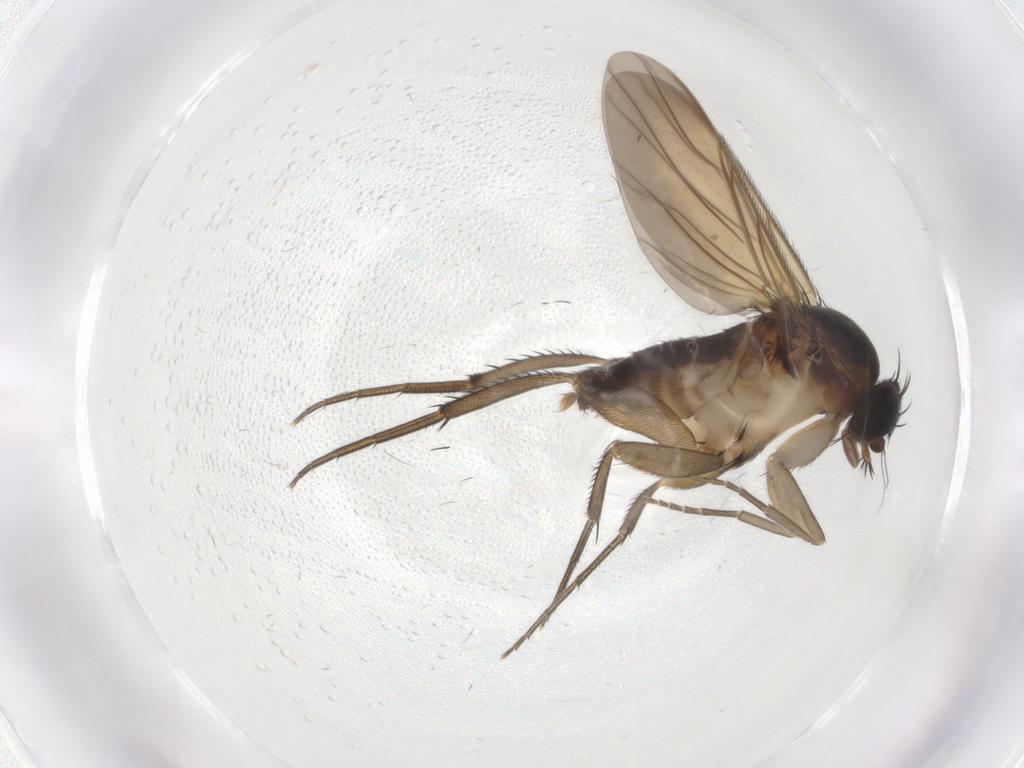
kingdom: Animalia
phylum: Arthropoda
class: Insecta
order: Diptera
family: Phoridae
